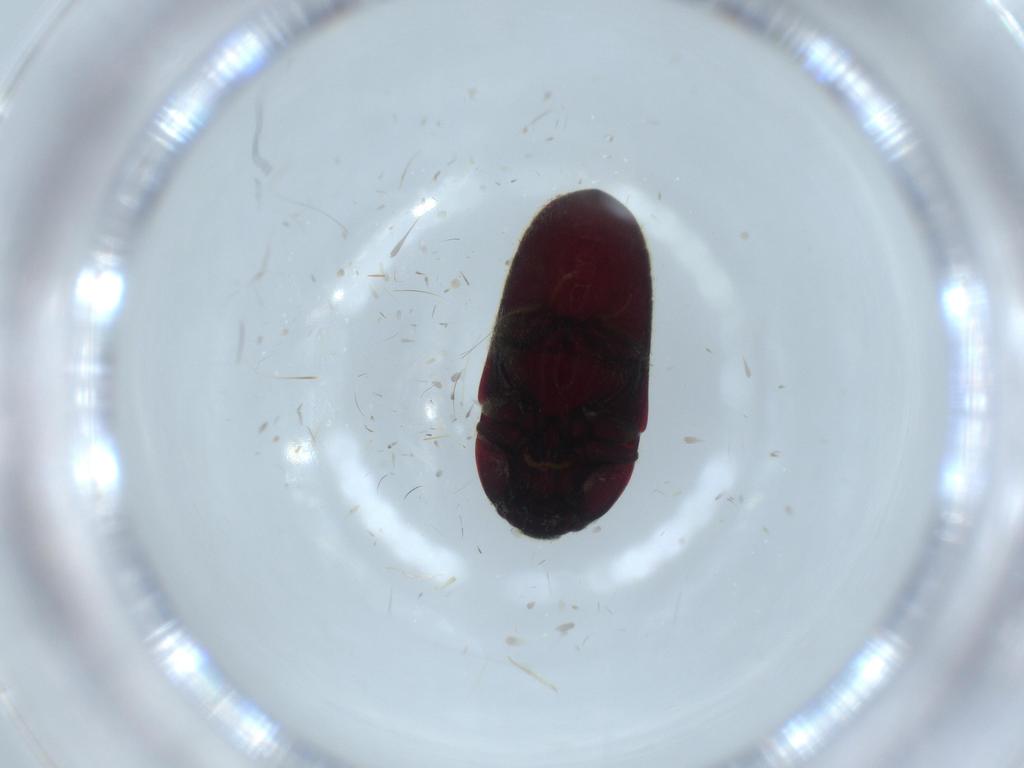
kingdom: Animalia
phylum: Arthropoda
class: Insecta
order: Coleoptera
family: Throscidae
